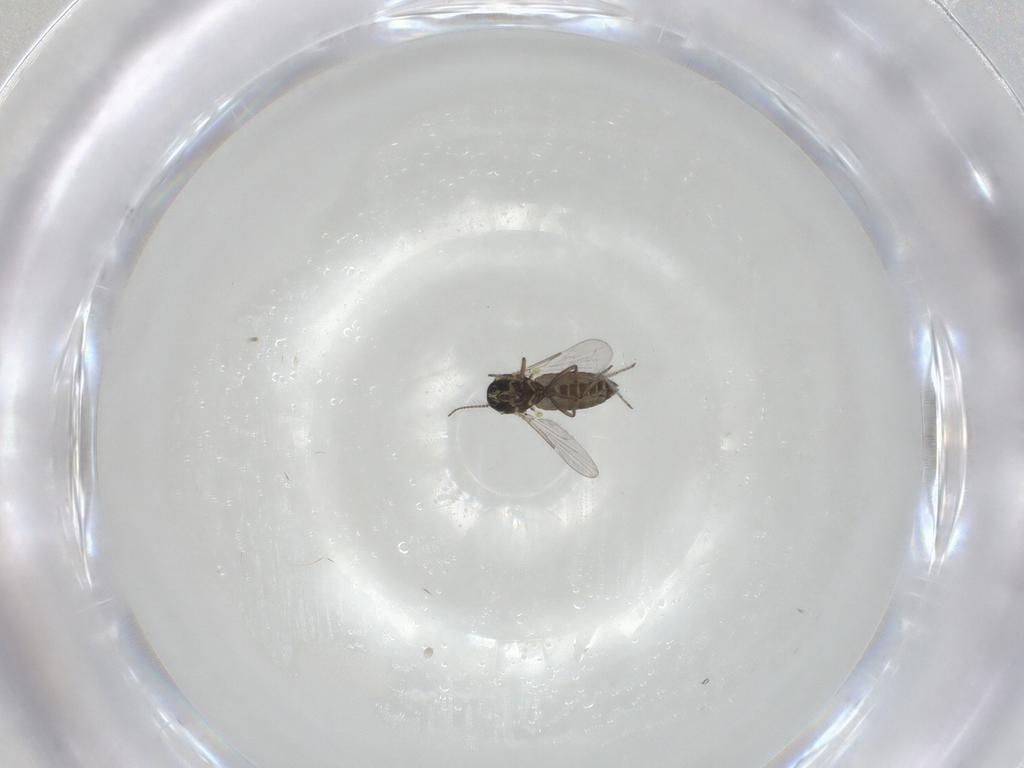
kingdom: Animalia
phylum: Arthropoda
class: Insecta
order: Diptera
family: Ceratopogonidae
